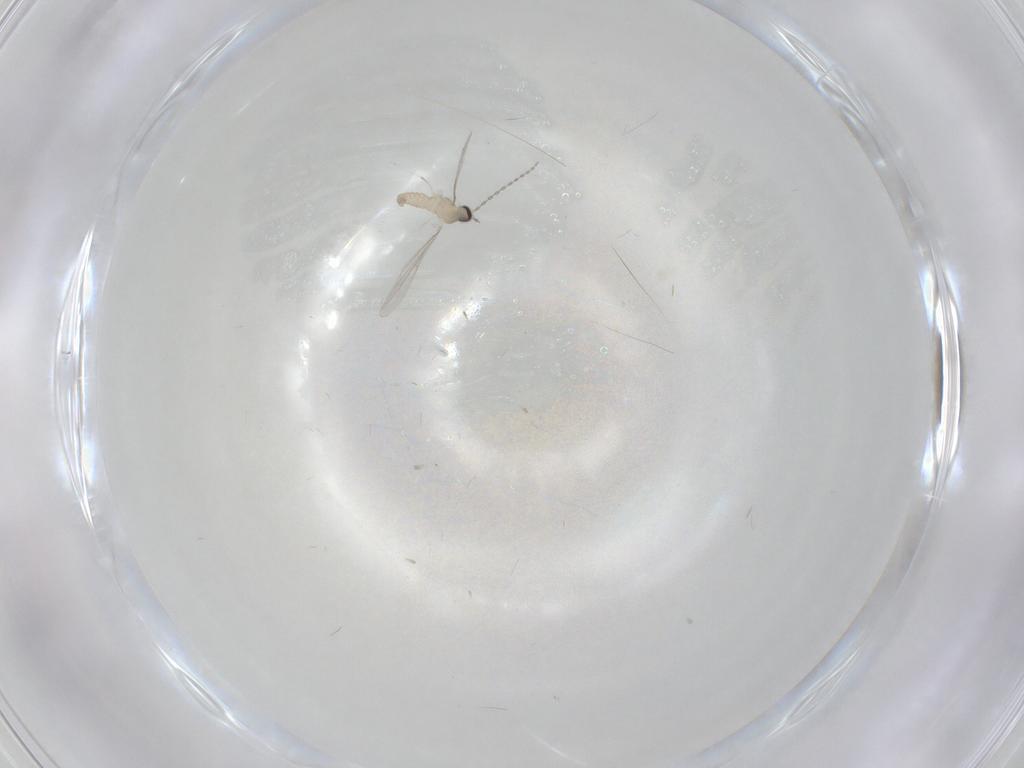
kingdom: Animalia
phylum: Arthropoda
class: Insecta
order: Diptera
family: Cecidomyiidae
